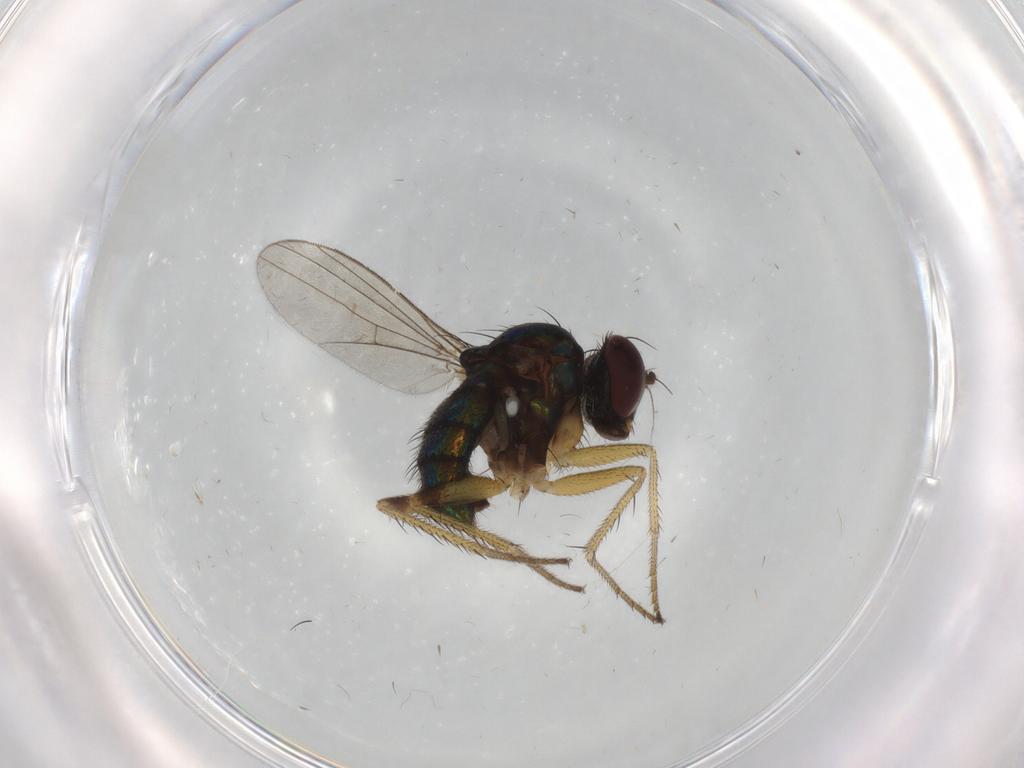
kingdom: Animalia
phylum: Arthropoda
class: Insecta
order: Diptera
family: Dolichopodidae
